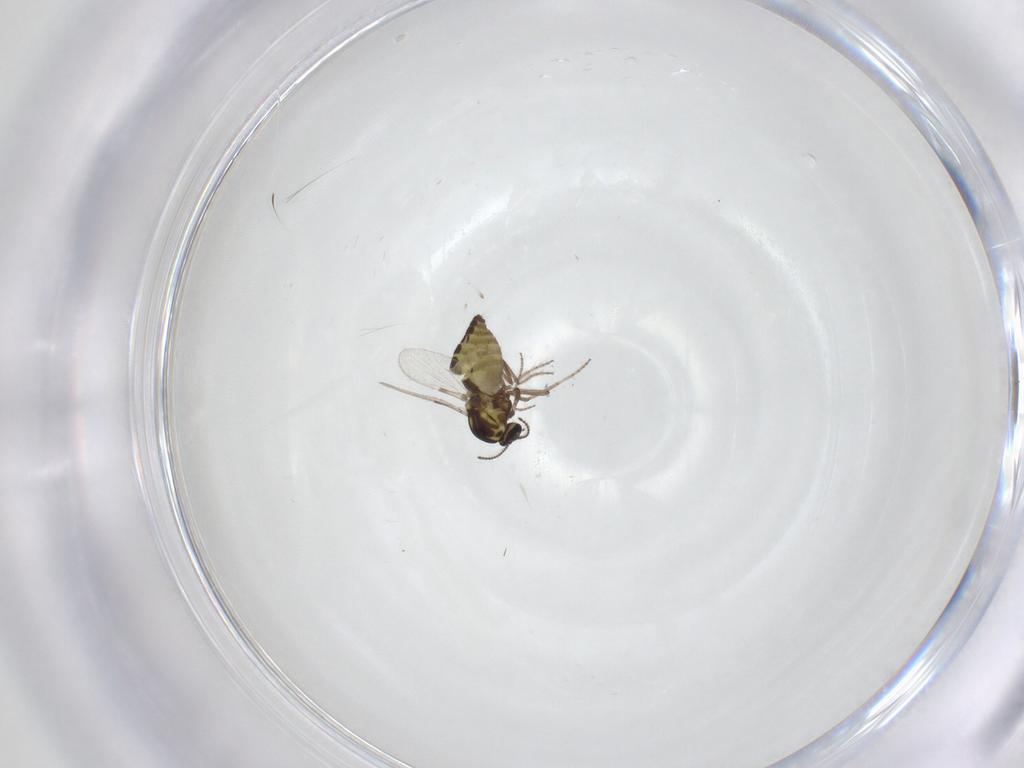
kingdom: Animalia
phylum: Arthropoda
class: Insecta
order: Diptera
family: Ceratopogonidae
